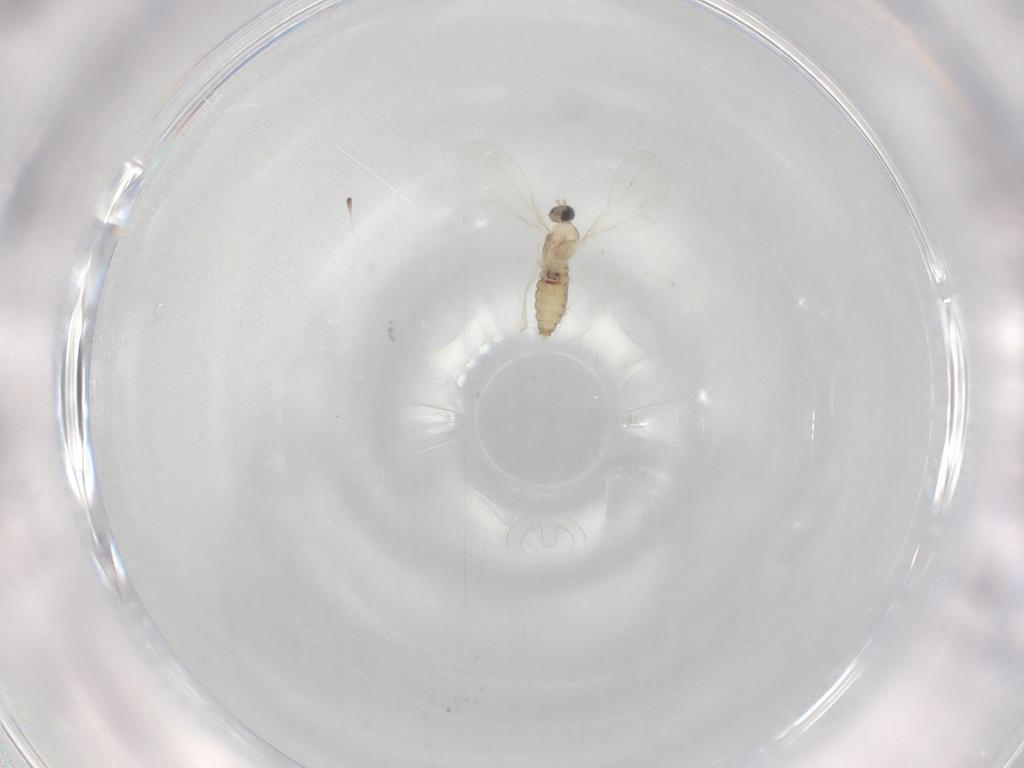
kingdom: Animalia
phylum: Arthropoda
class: Insecta
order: Diptera
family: Cecidomyiidae
